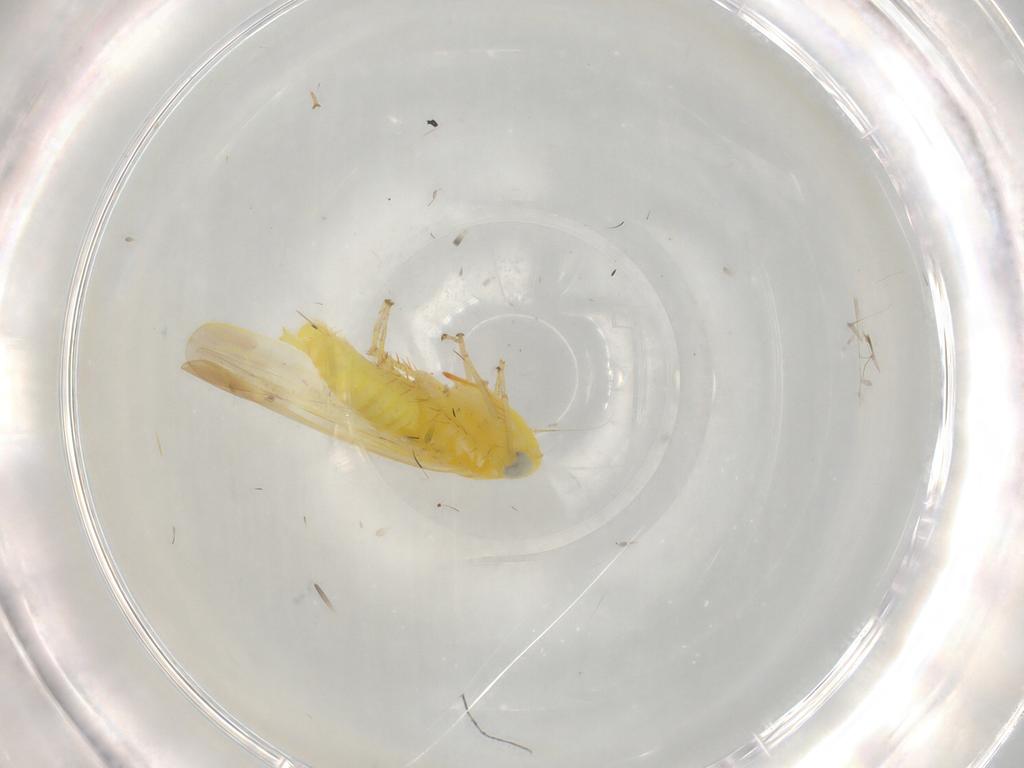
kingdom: Animalia
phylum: Arthropoda
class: Insecta
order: Hemiptera
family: Cicadellidae
